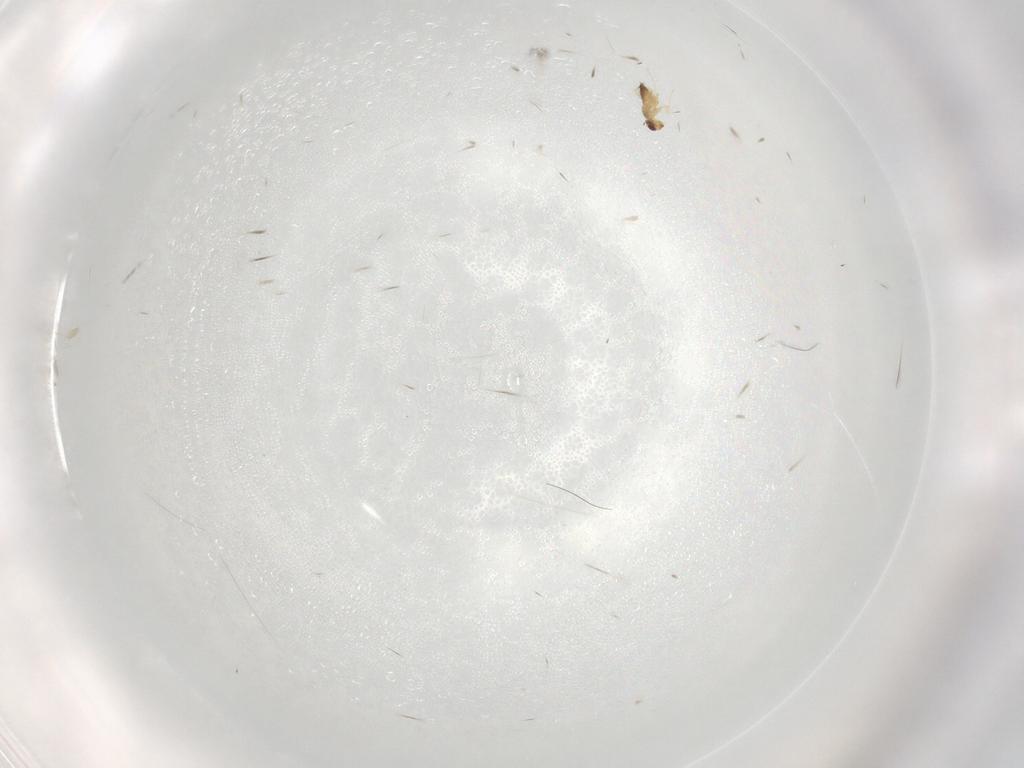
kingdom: Animalia
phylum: Arthropoda
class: Insecta
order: Hymenoptera
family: Mymaridae
